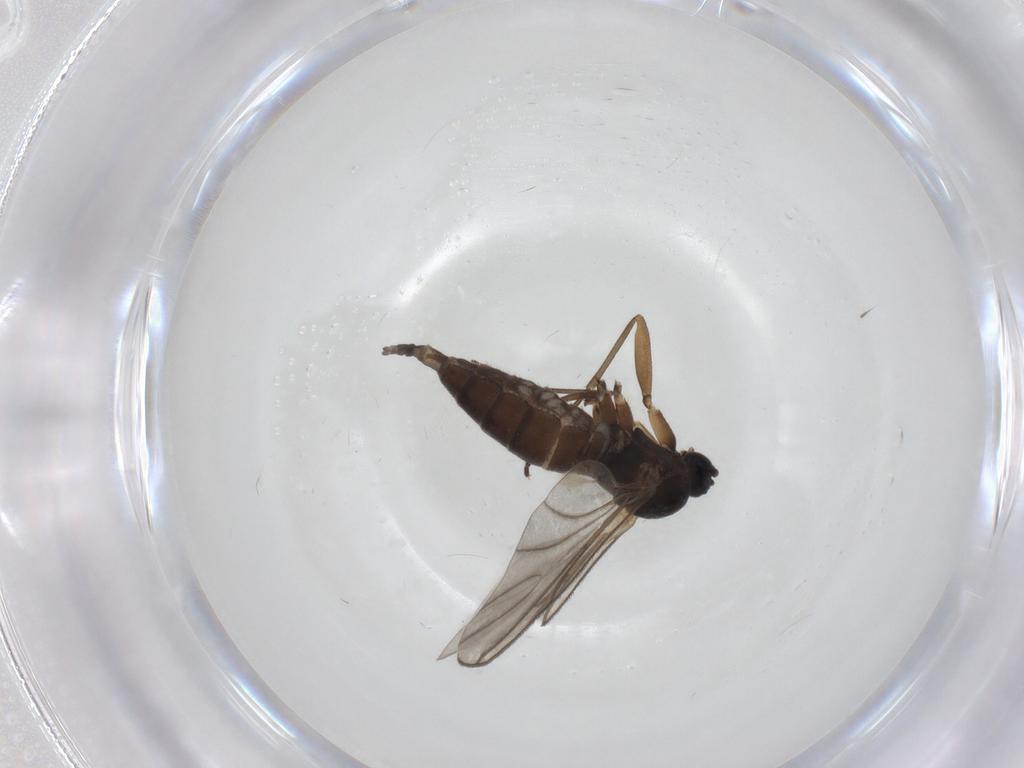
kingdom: Animalia
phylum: Arthropoda
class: Insecta
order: Diptera
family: Sciaridae
